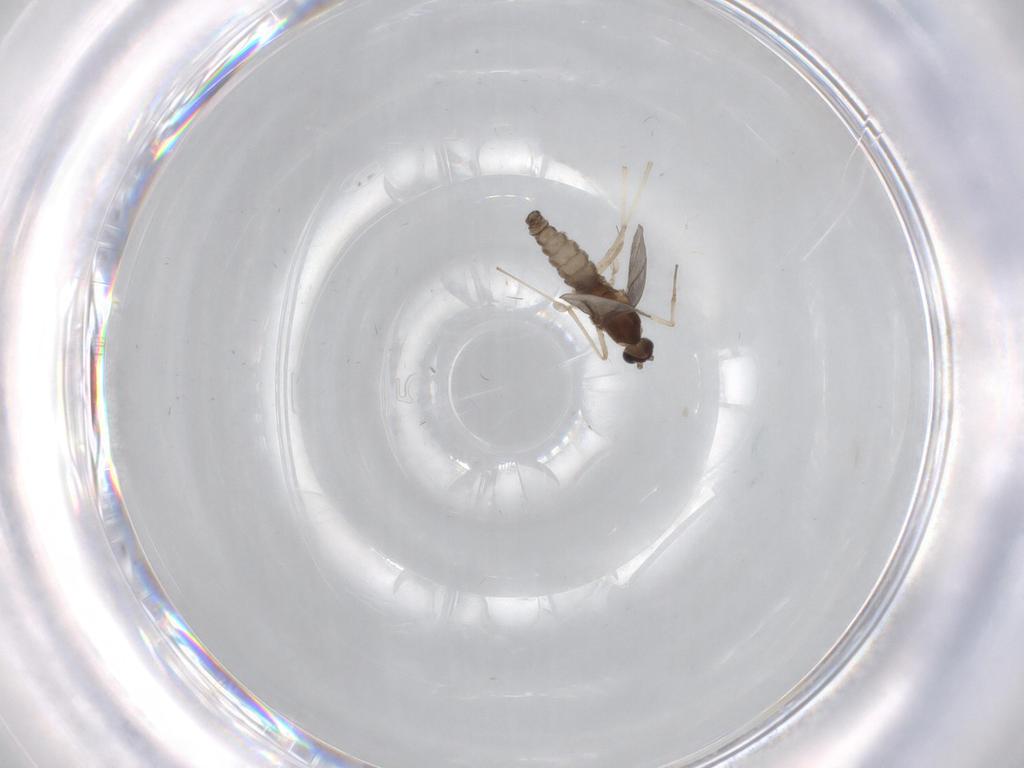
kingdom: Animalia
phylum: Arthropoda
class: Insecta
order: Diptera
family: Cecidomyiidae
